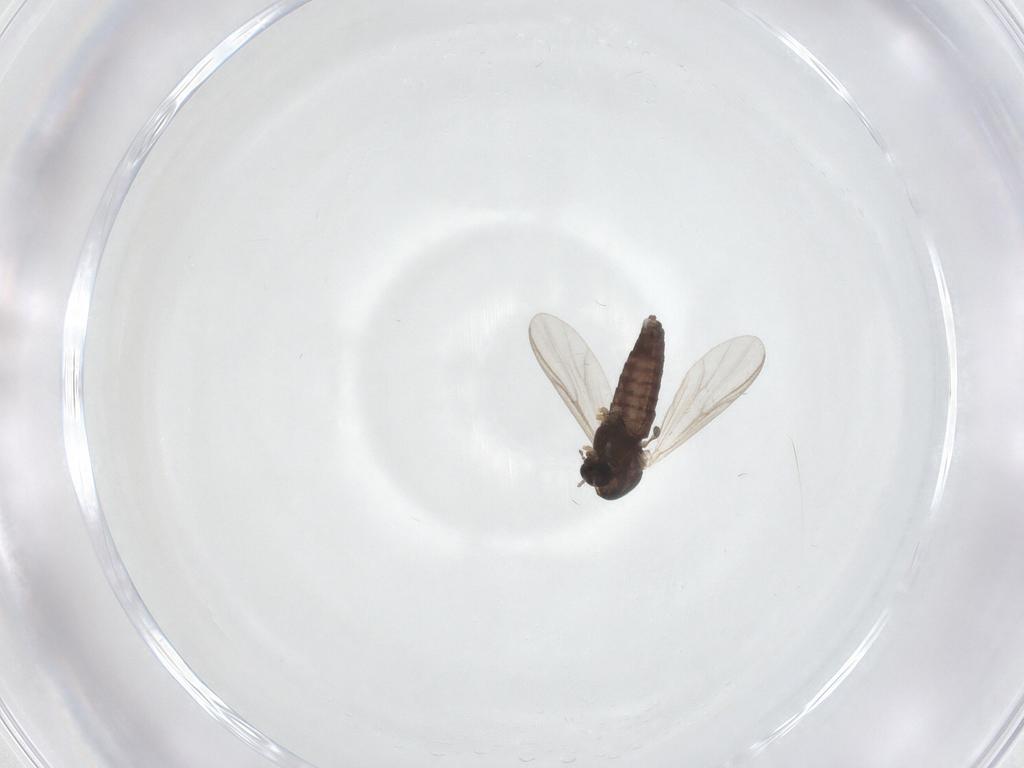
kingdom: Animalia
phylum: Arthropoda
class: Insecta
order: Diptera
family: Chironomidae
